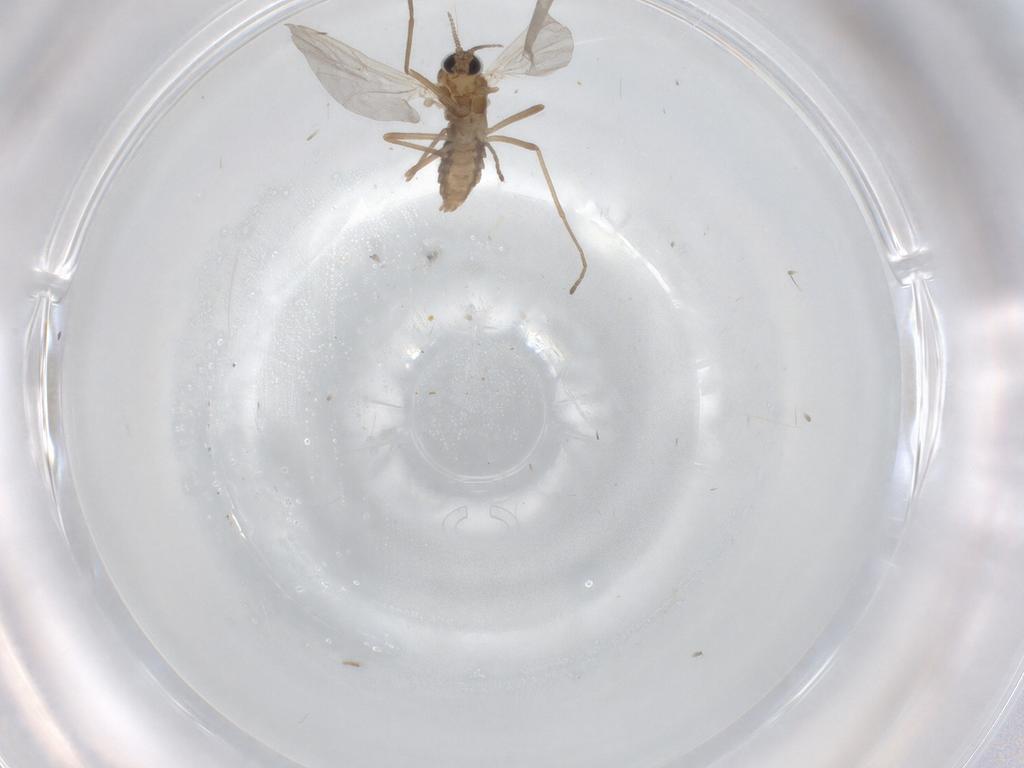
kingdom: Animalia
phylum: Arthropoda
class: Insecta
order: Diptera
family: Cecidomyiidae
